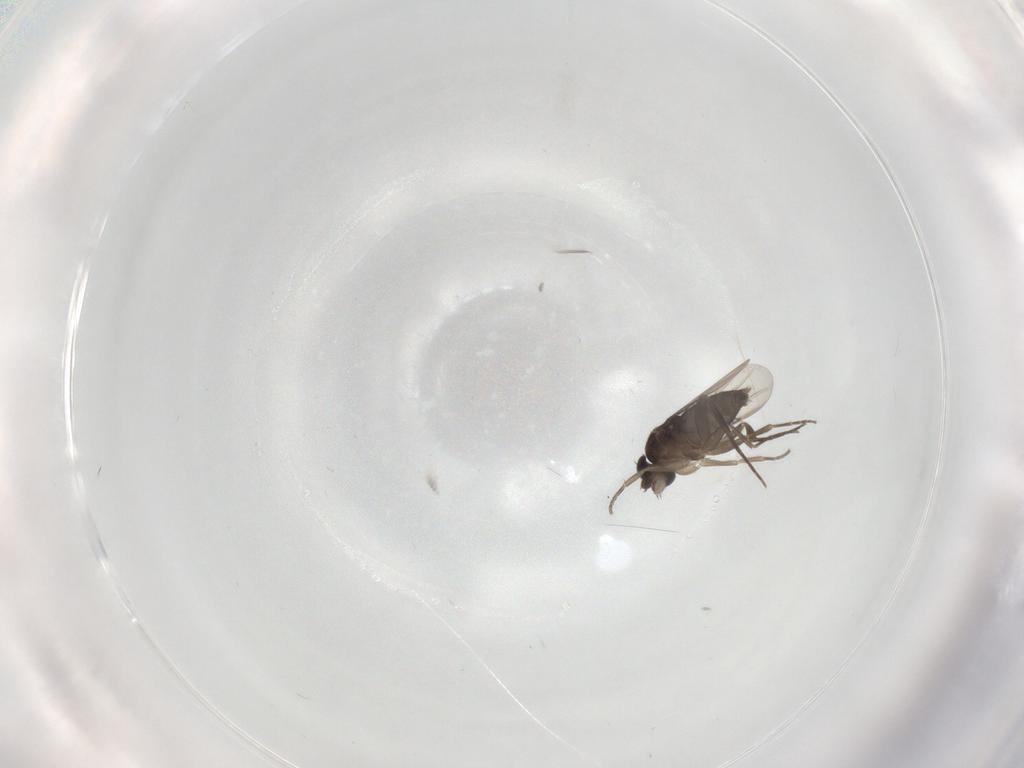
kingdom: Animalia
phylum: Arthropoda
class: Insecta
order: Diptera
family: Phoridae
